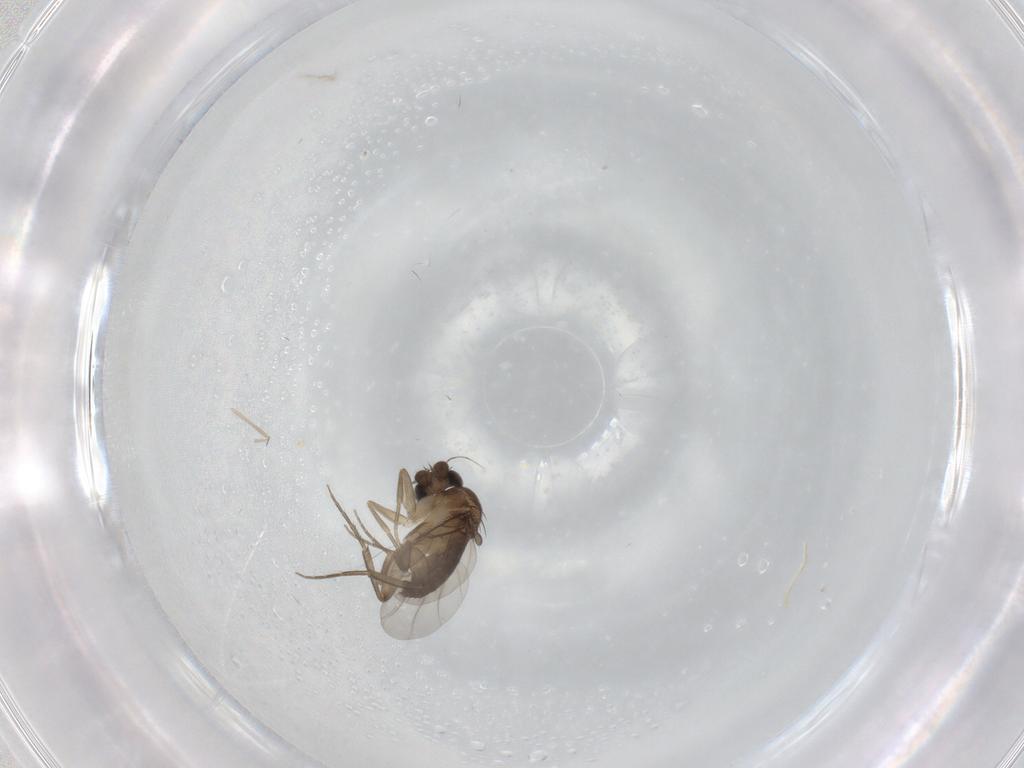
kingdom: Animalia
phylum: Arthropoda
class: Insecta
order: Diptera
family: Phoridae
